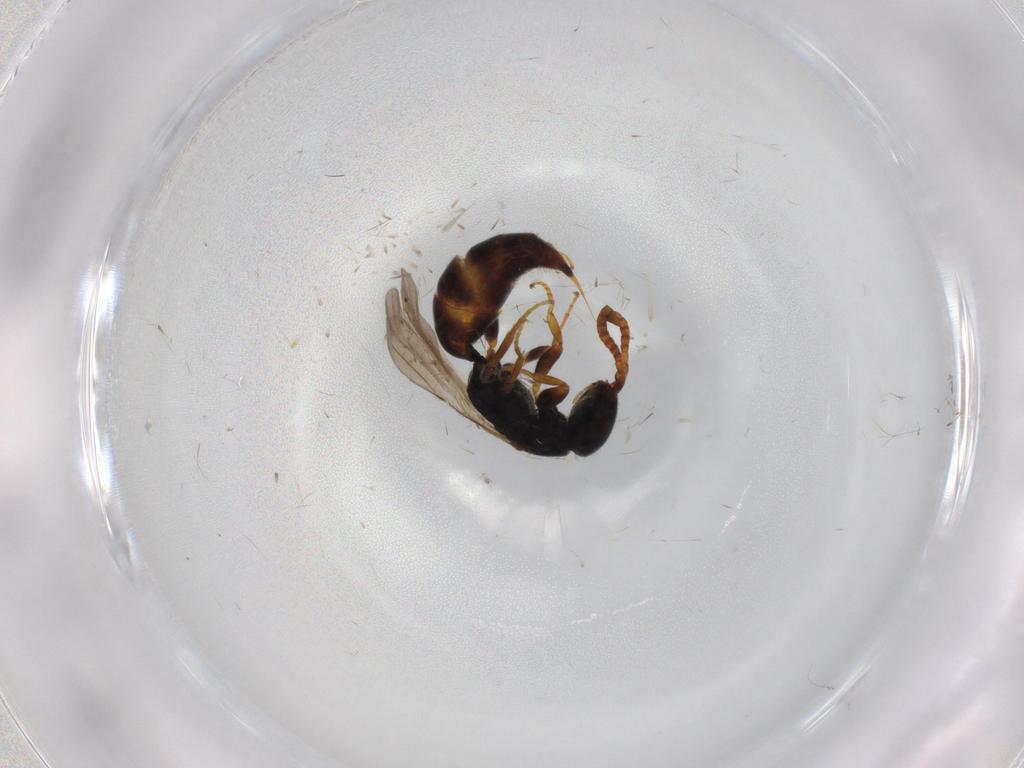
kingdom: Animalia
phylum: Arthropoda
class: Insecta
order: Hymenoptera
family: Bethylidae
